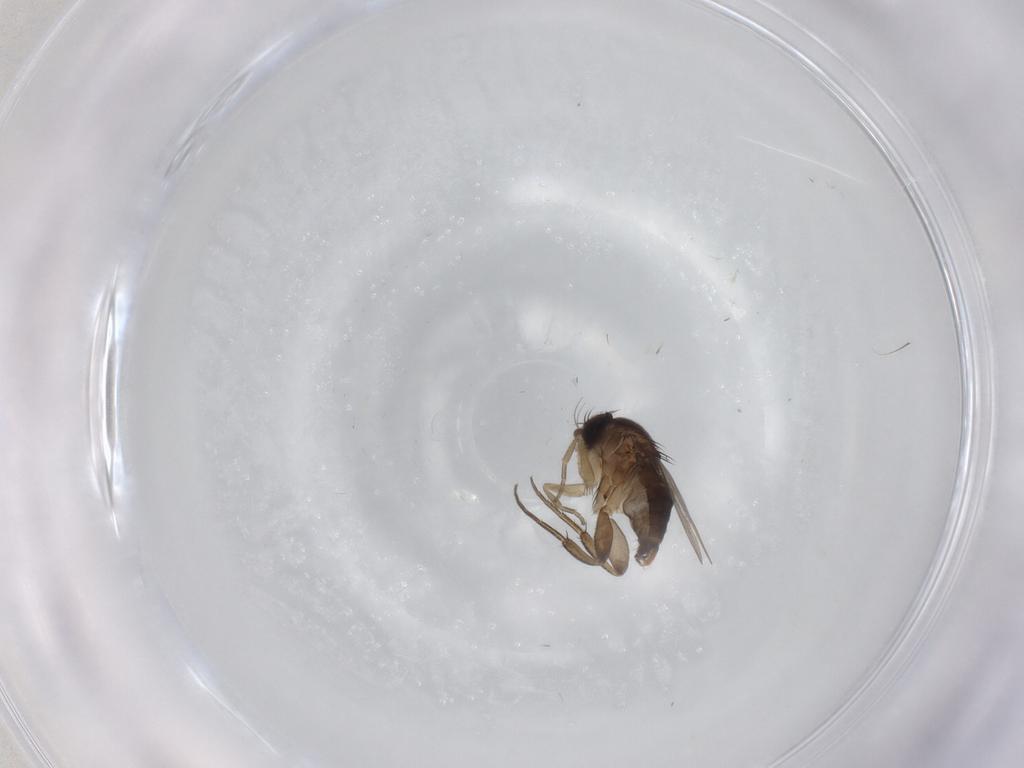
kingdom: Animalia
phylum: Arthropoda
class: Insecta
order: Diptera
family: Phoridae
